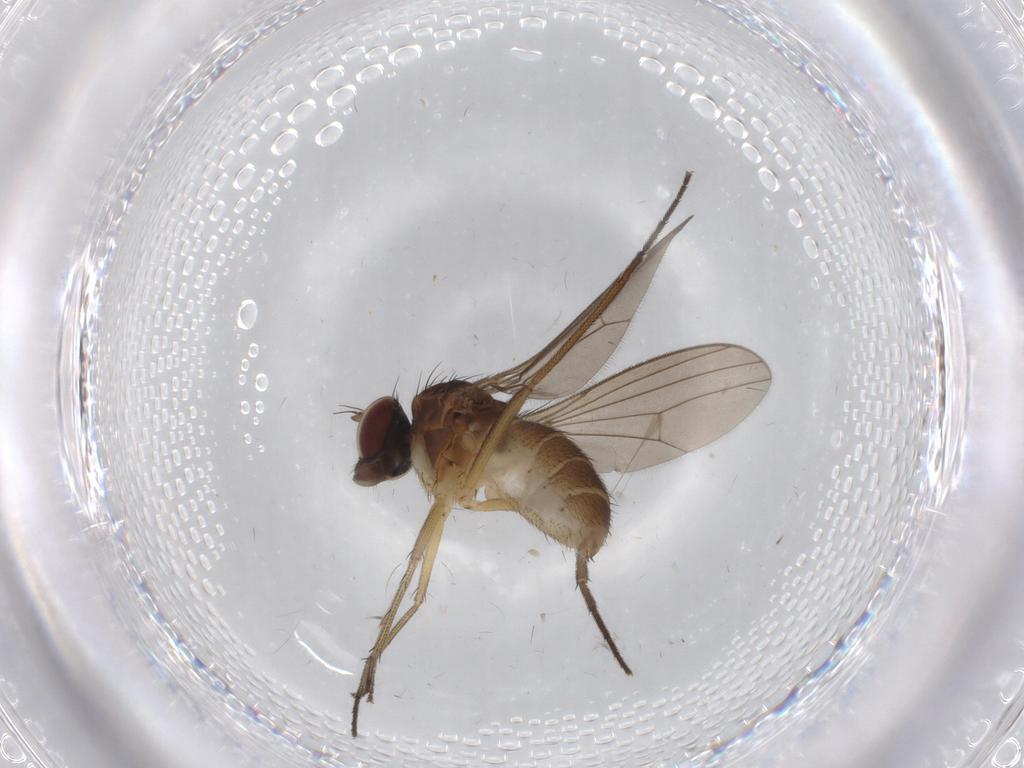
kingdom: Animalia
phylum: Arthropoda
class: Insecta
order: Diptera
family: Dolichopodidae
